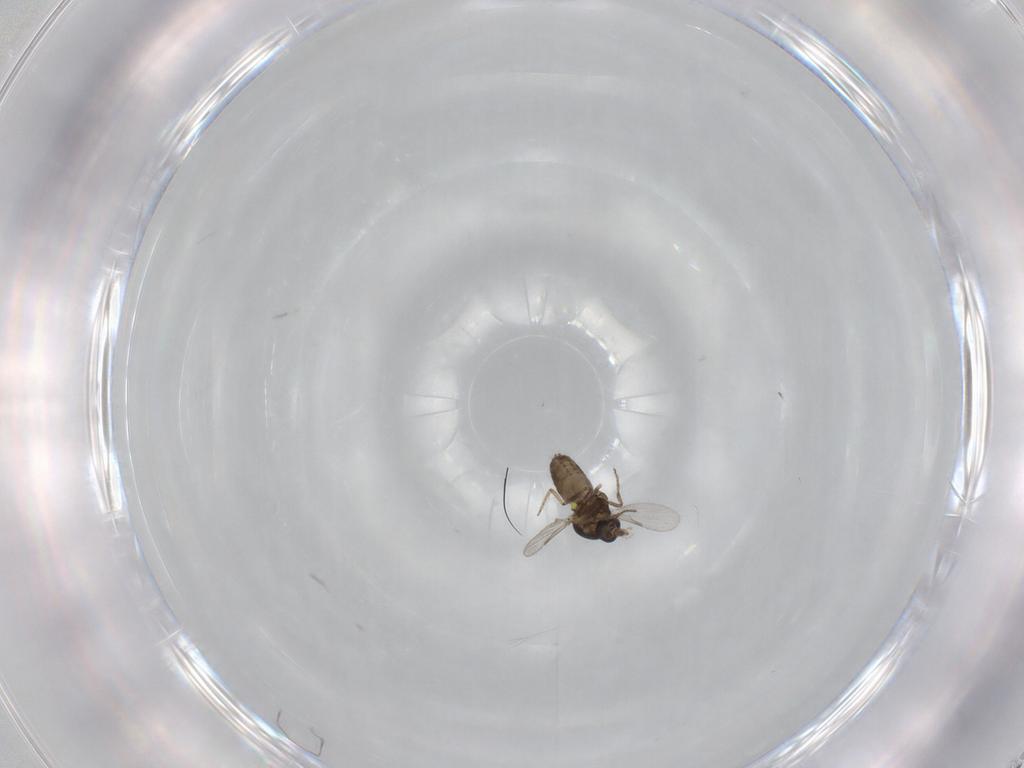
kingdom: Animalia
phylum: Arthropoda
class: Insecta
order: Diptera
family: Ceratopogonidae
